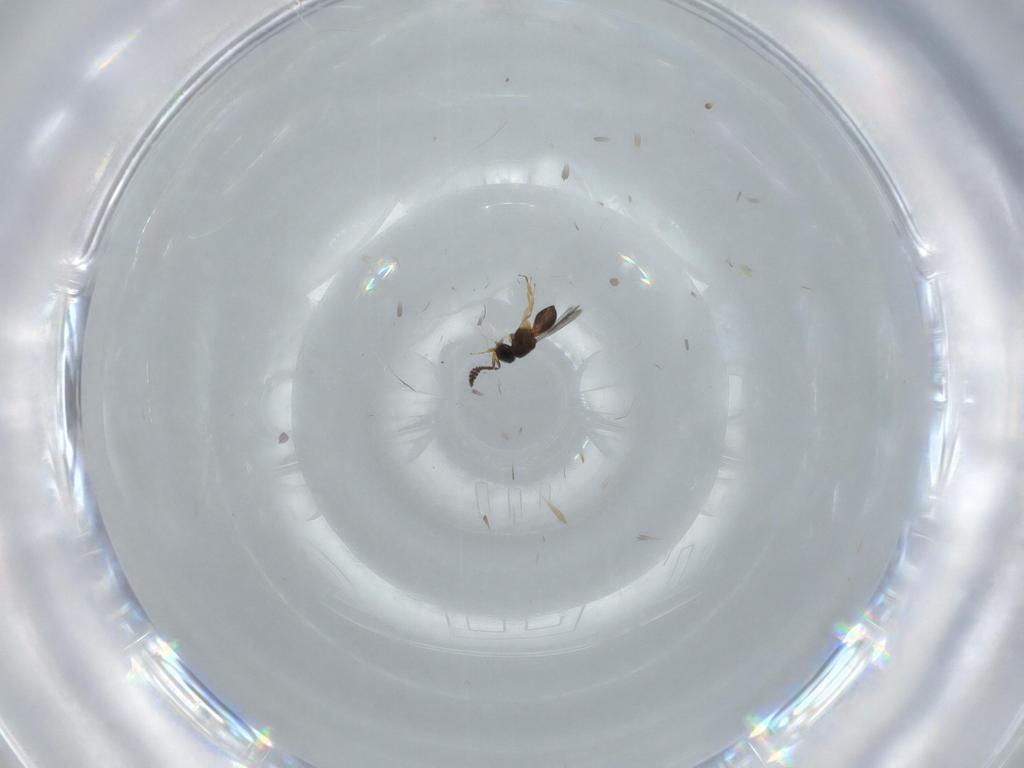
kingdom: Animalia
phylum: Arthropoda
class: Insecta
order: Hymenoptera
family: Scelionidae
